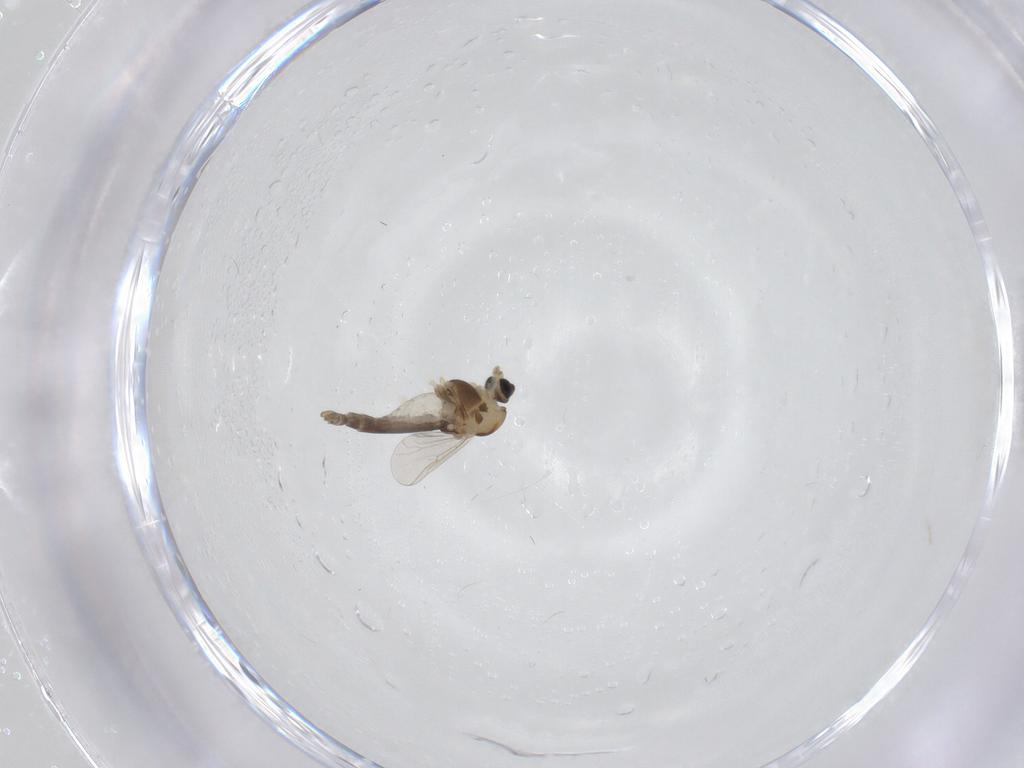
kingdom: Animalia
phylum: Arthropoda
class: Insecta
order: Diptera
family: Chironomidae
